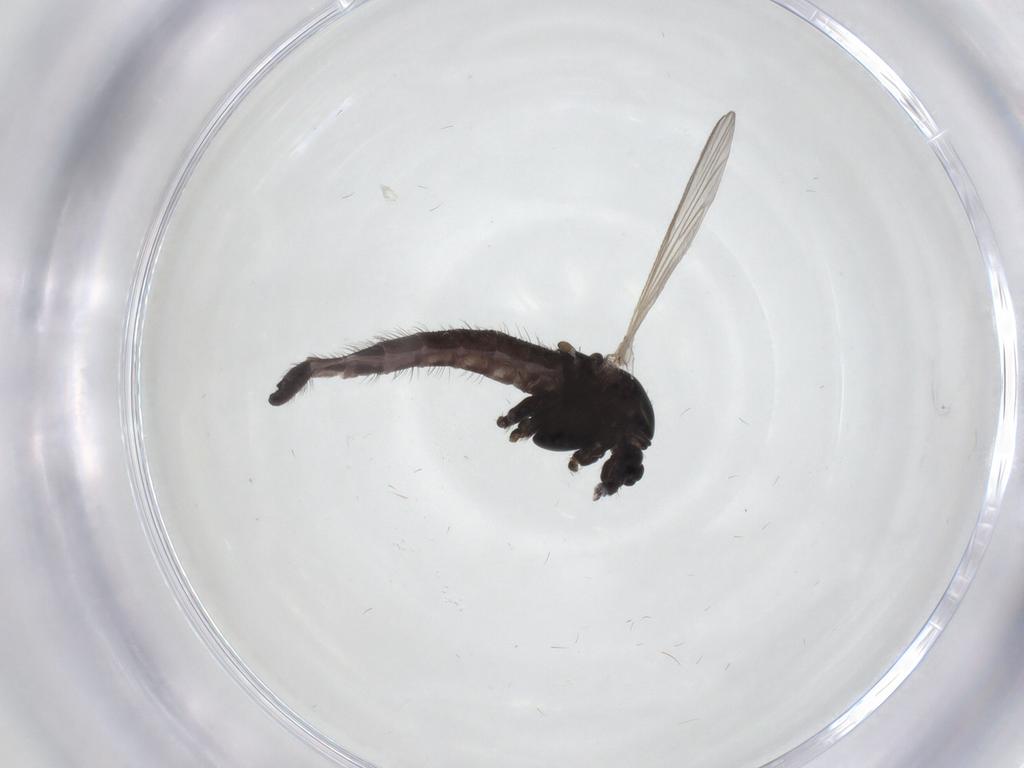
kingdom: Animalia
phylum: Arthropoda
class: Insecta
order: Diptera
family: Chironomidae
